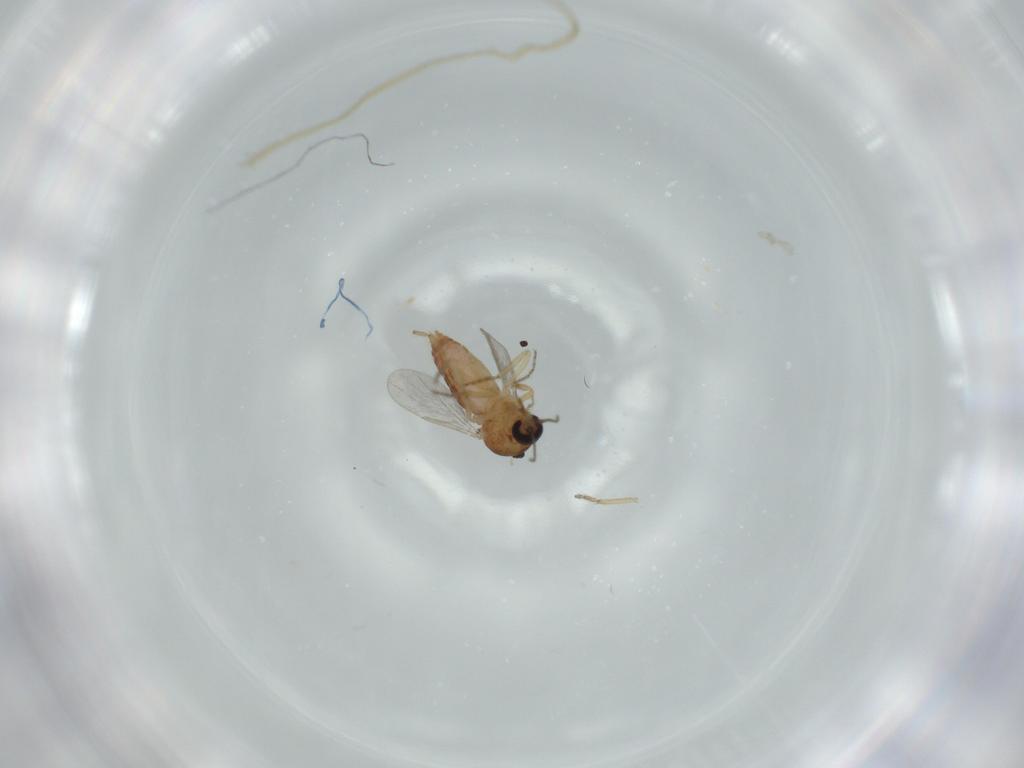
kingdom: Animalia
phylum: Arthropoda
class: Insecta
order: Diptera
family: Ceratopogonidae
